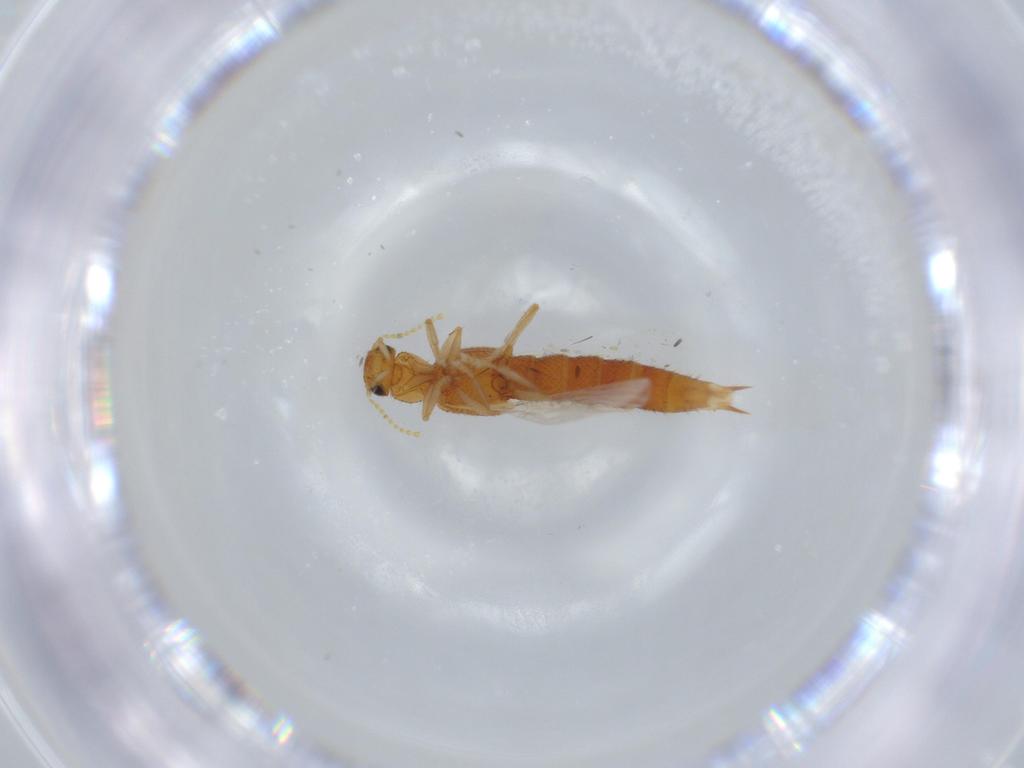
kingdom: Animalia
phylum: Arthropoda
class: Insecta
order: Coleoptera
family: Staphylinidae
